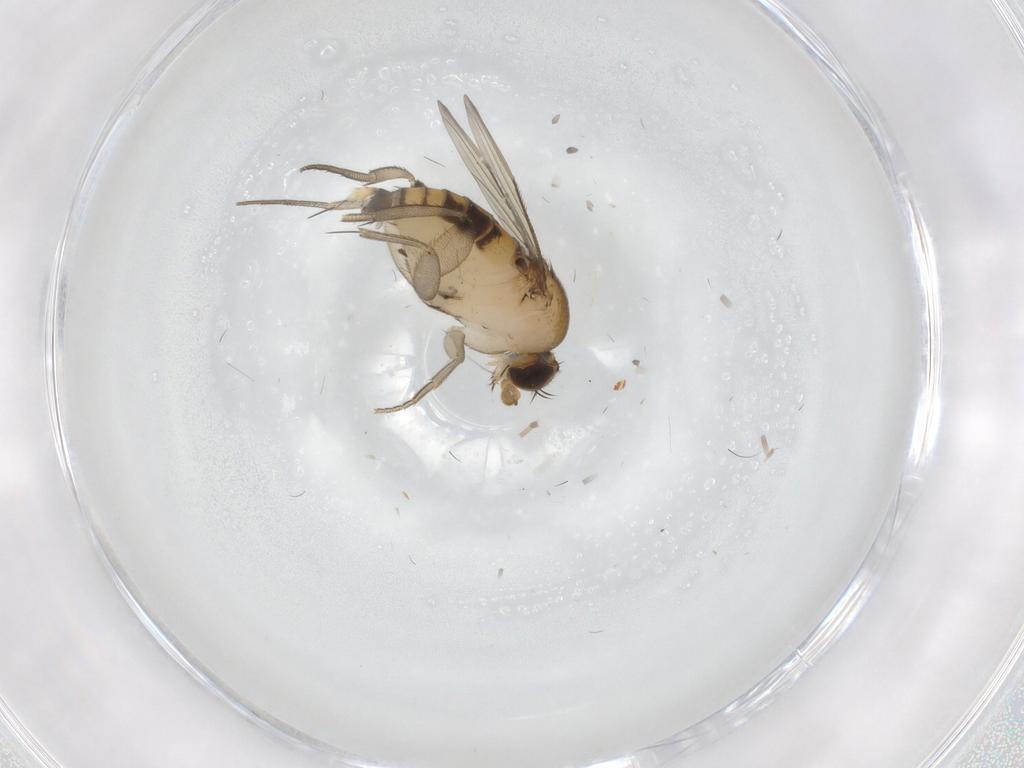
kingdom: Animalia
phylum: Arthropoda
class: Insecta
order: Diptera
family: Phoridae
